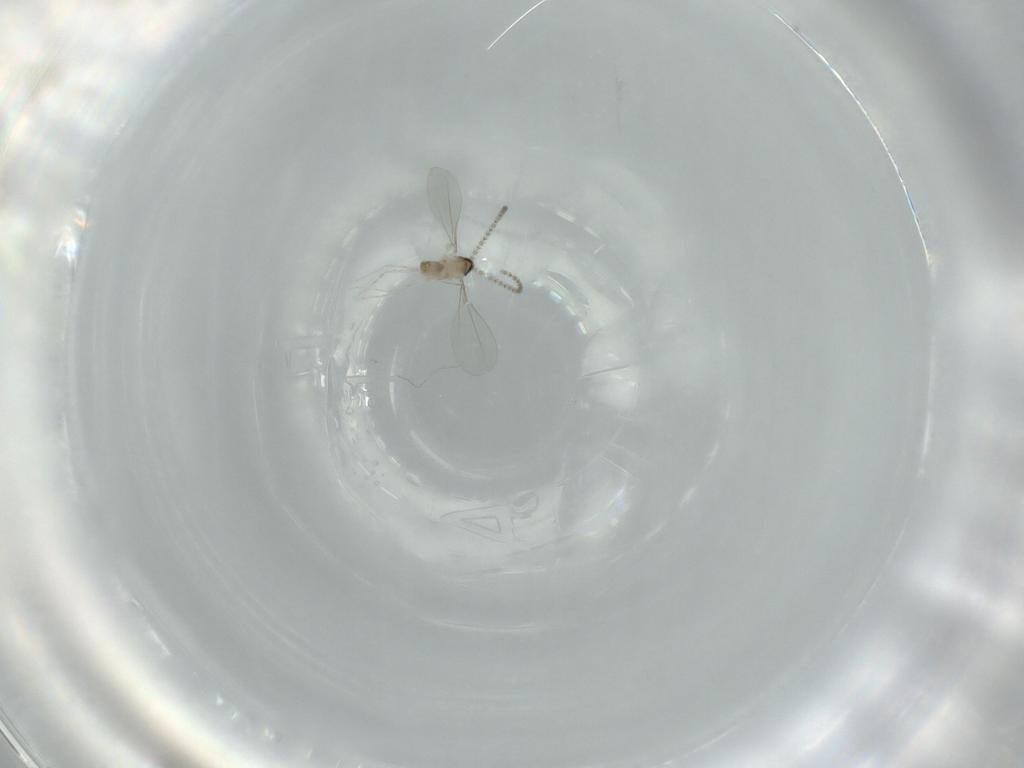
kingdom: Animalia
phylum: Arthropoda
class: Insecta
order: Diptera
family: Cecidomyiidae
